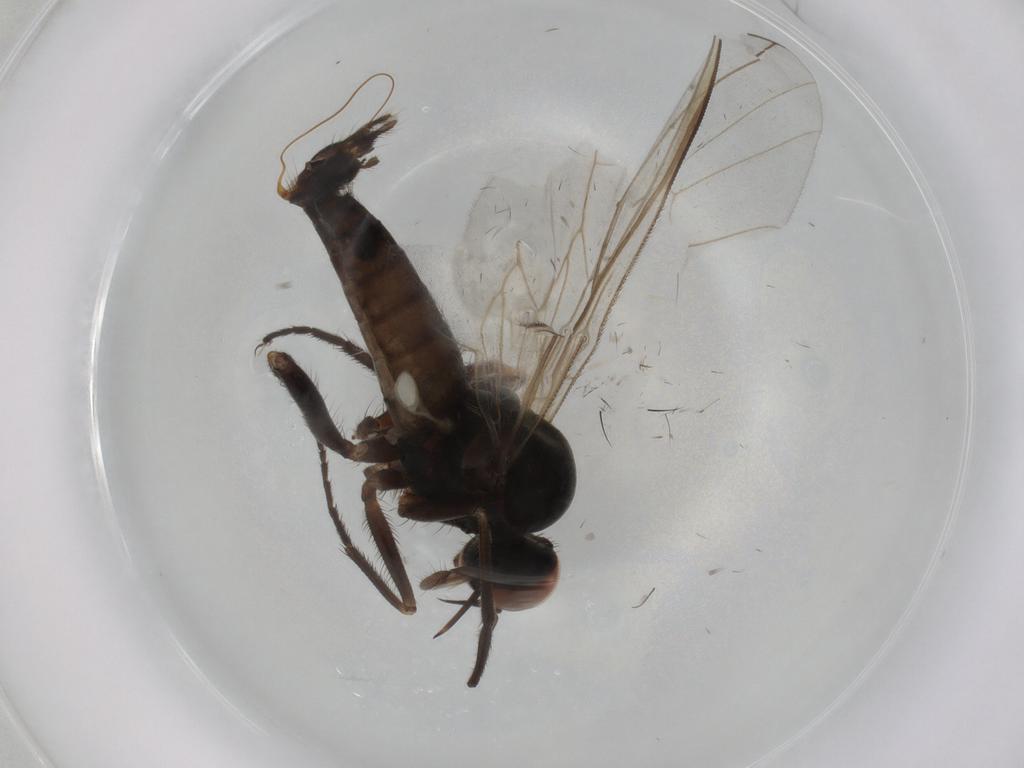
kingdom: Animalia
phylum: Arthropoda
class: Insecta
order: Diptera
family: Empididae
